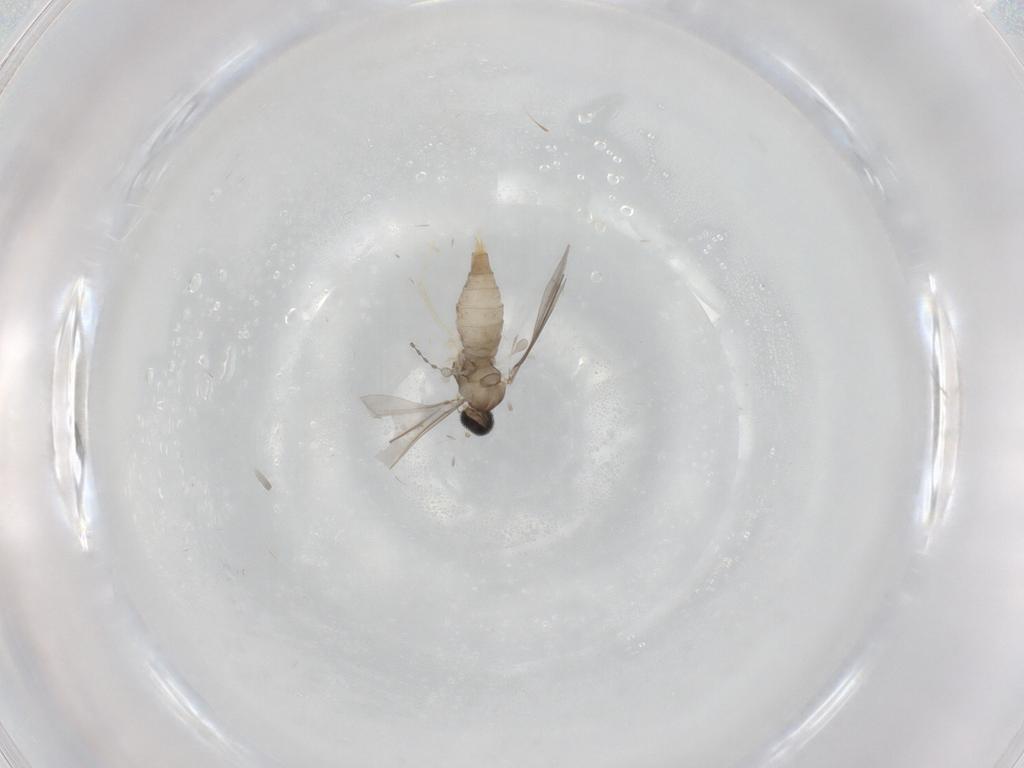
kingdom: Animalia
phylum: Arthropoda
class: Insecta
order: Diptera
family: Cecidomyiidae
